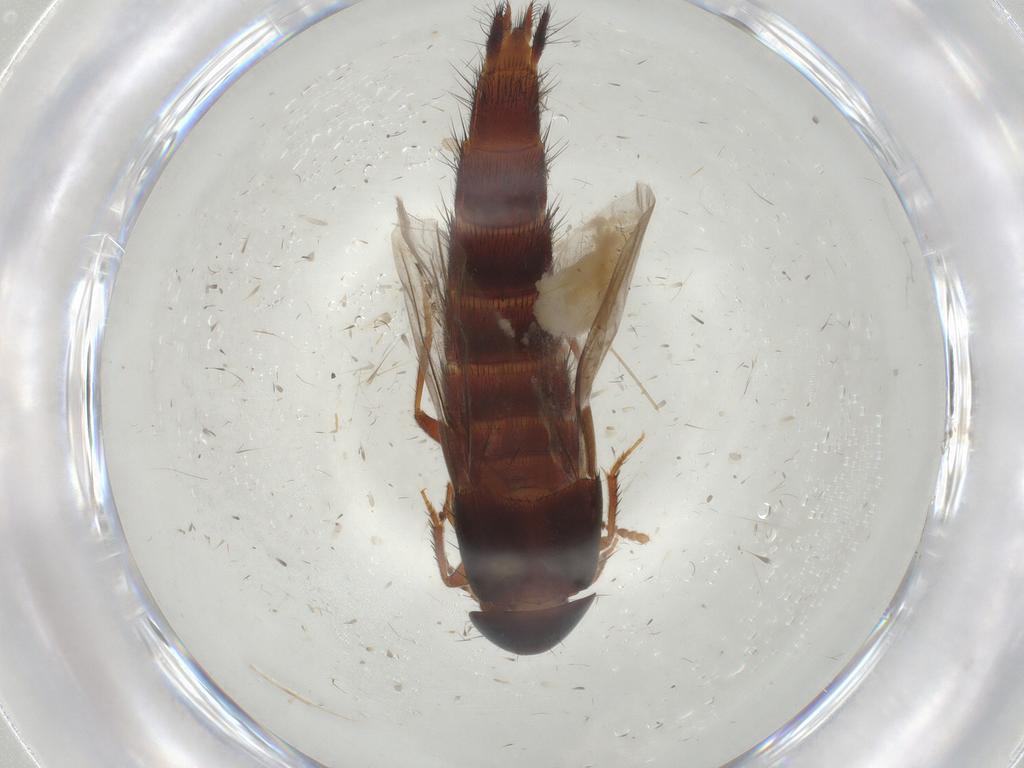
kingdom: Animalia
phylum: Arthropoda
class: Insecta
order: Coleoptera
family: Staphylinidae
